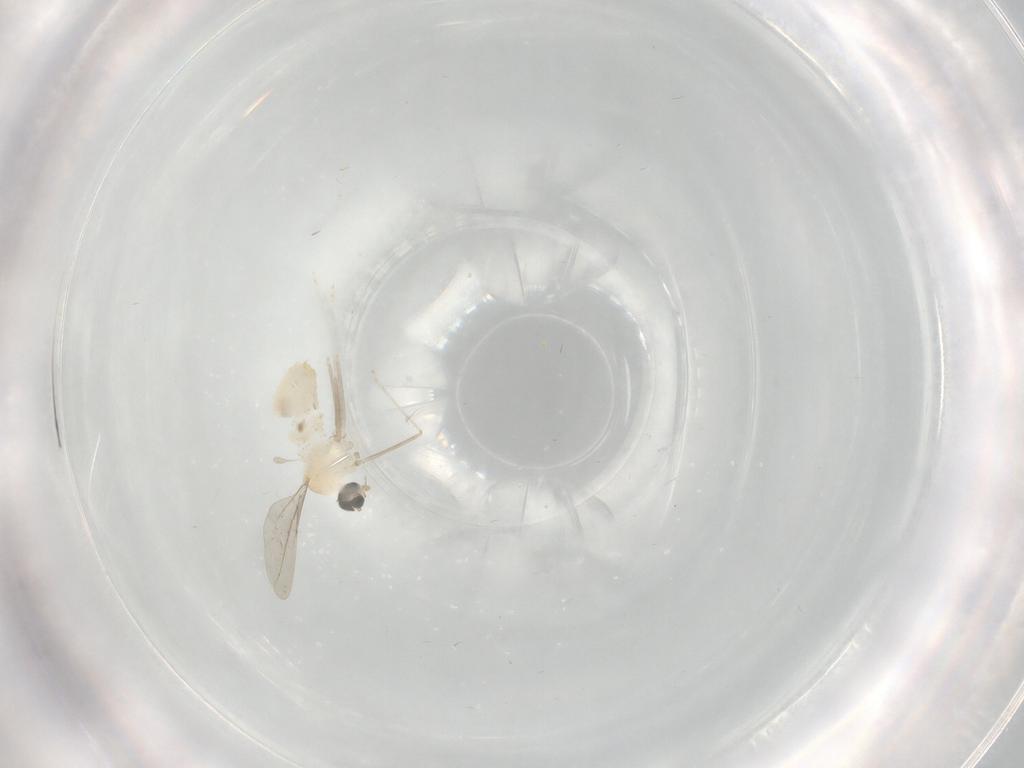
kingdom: Animalia
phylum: Arthropoda
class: Insecta
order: Diptera
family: Cecidomyiidae
